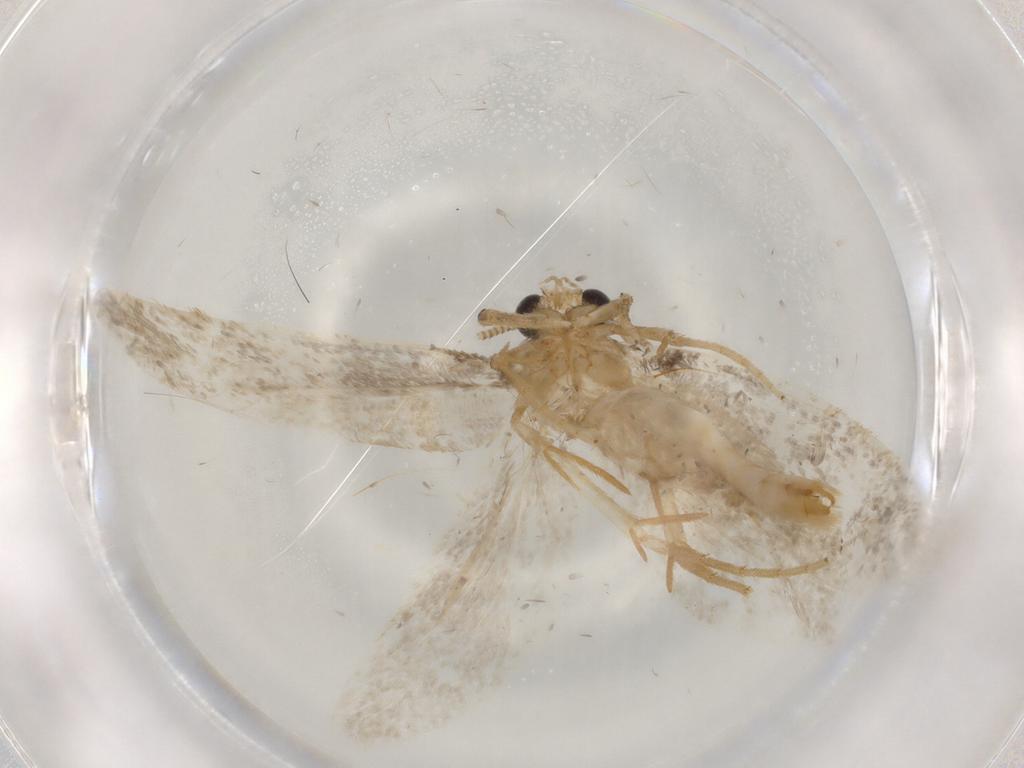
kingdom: Animalia
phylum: Arthropoda
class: Insecta
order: Lepidoptera
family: Tineidae
